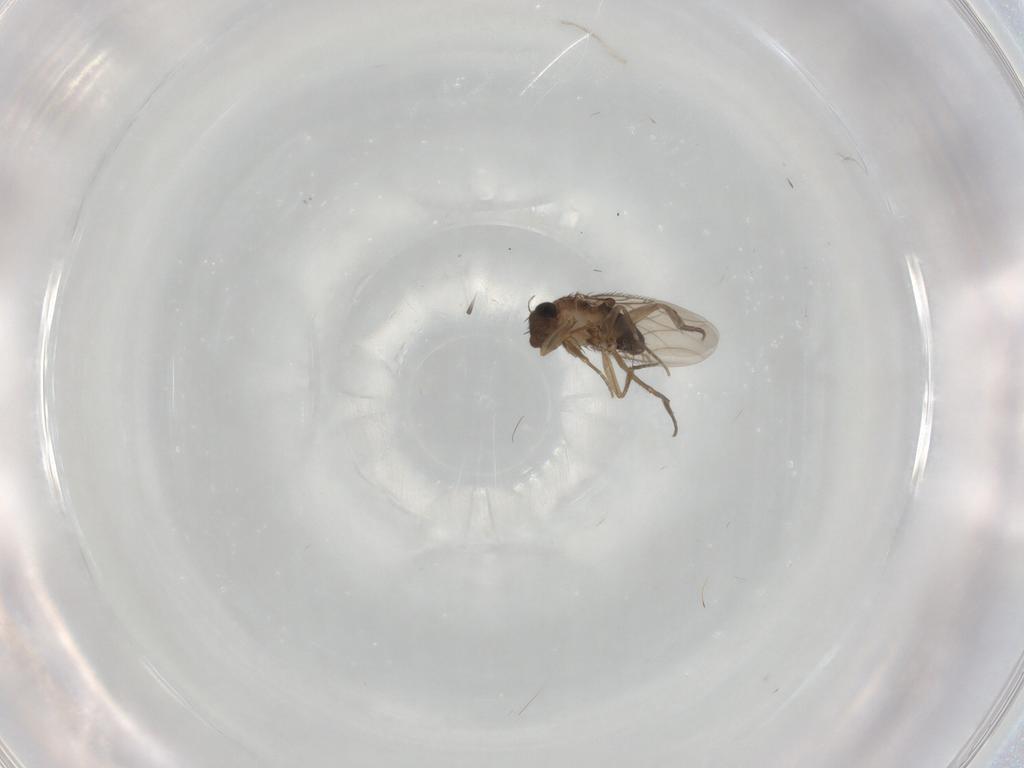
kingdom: Animalia
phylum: Arthropoda
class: Insecta
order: Diptera
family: Phoridae
